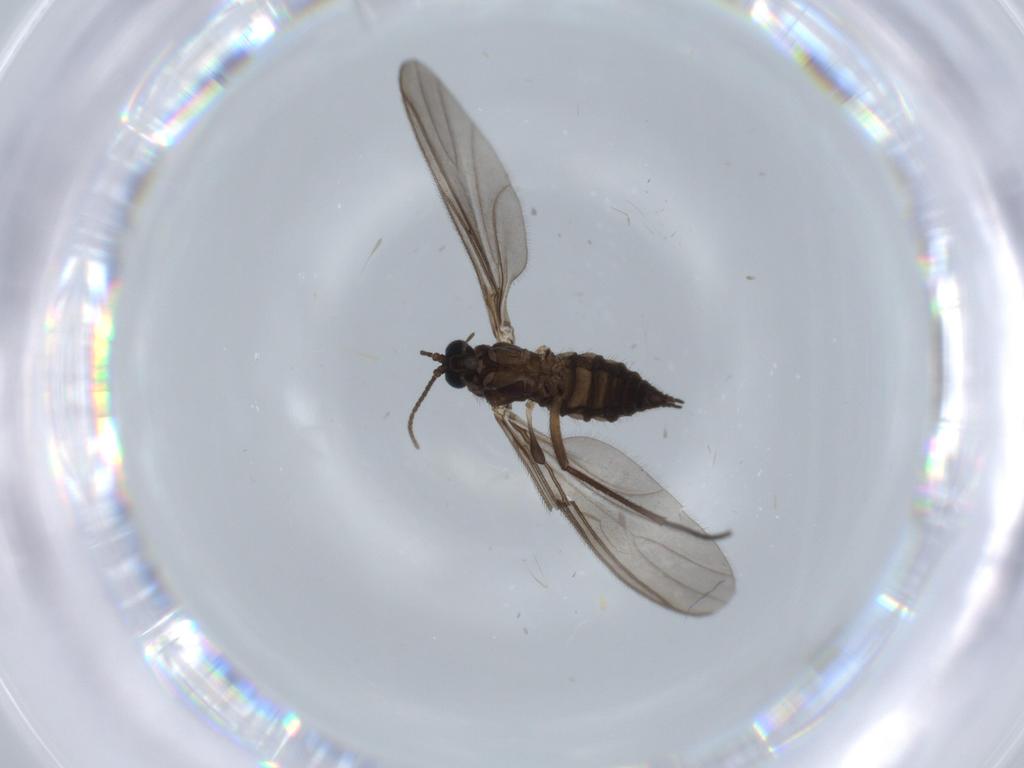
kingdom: Animalia
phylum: Arthropoda
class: Insecta
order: Diptera
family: Sciaridae
